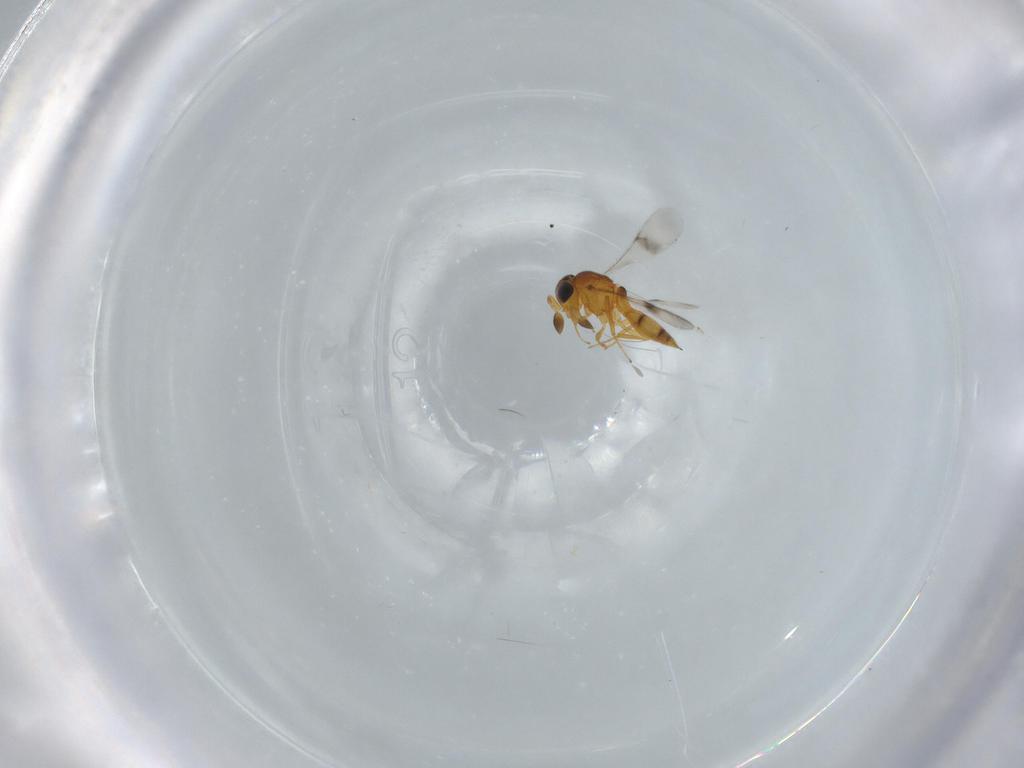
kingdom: Animalia
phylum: Arthropoda
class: Insecta
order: Hymenoptera
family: Scelionidae
